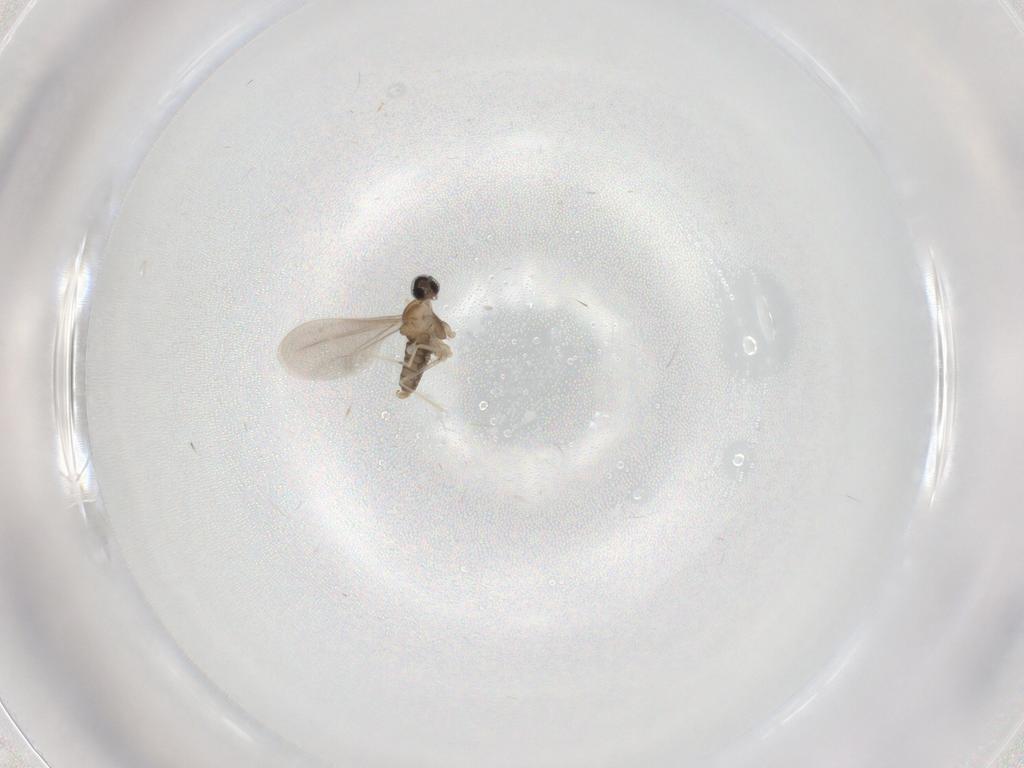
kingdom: Animalia
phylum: Arthropoda
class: Insecta
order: Diptera
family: Cecidomyiidae
